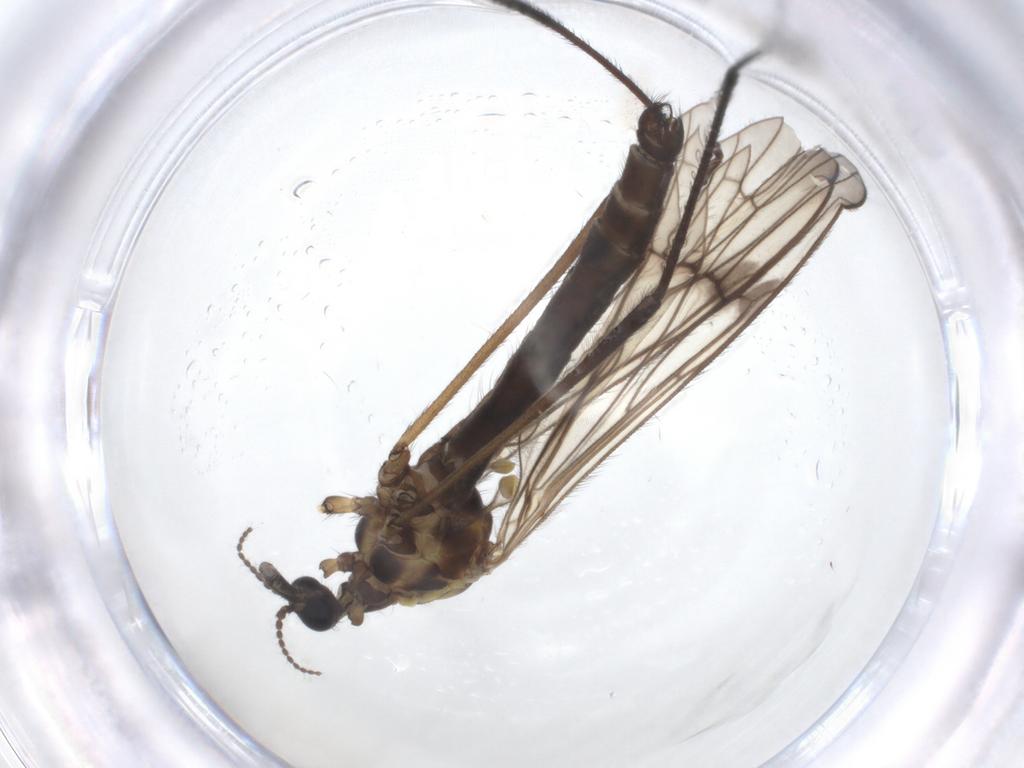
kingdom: Animalia
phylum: Arthropoda
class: Insecta
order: Diptera
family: Limoniidae
